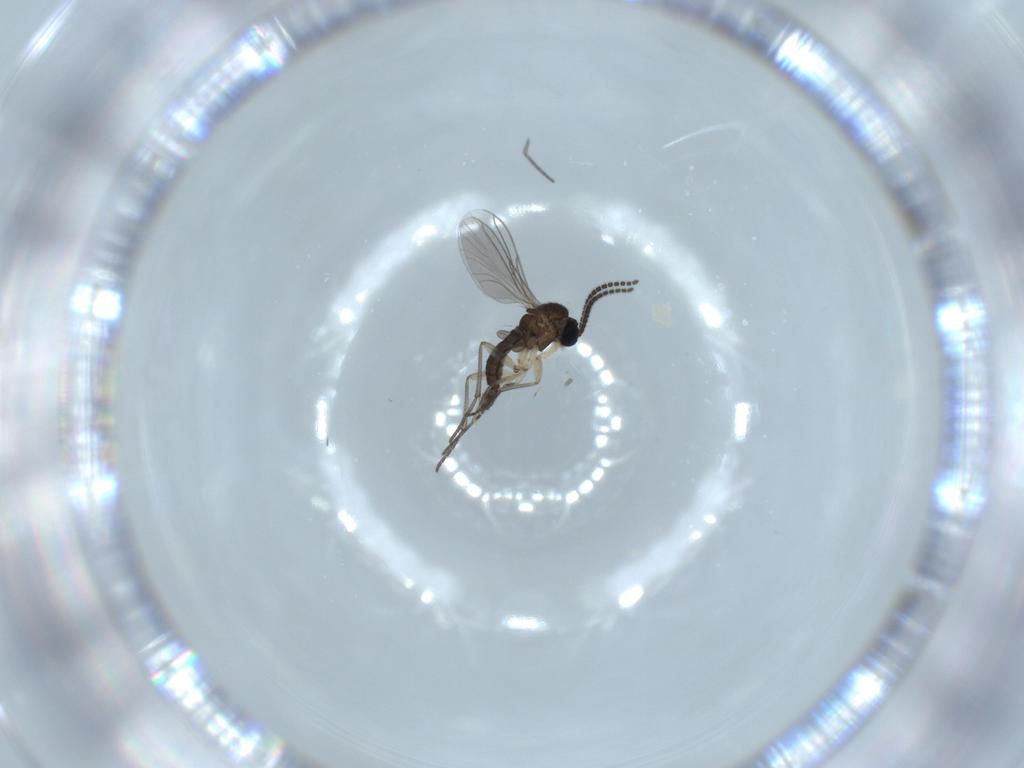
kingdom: Animalia
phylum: Arthropoda
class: Insecta
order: Diptera
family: Sciaridae
